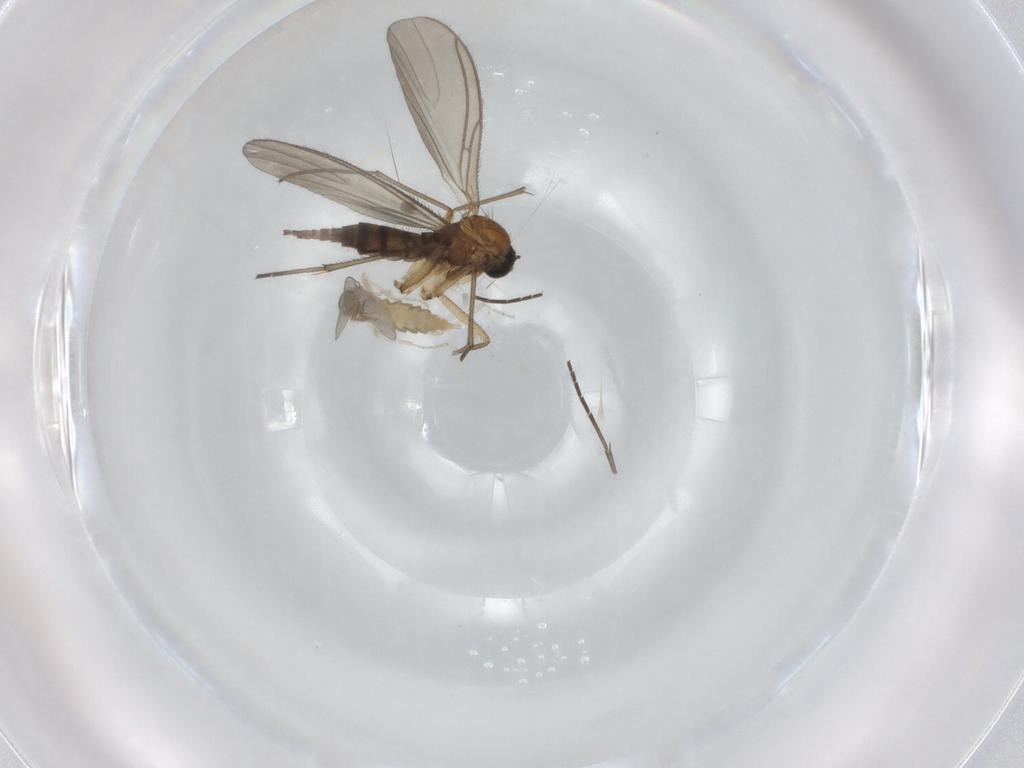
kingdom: Animalia
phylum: Arthropoda
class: Insecta
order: Diptera
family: Cecidomyiidae
